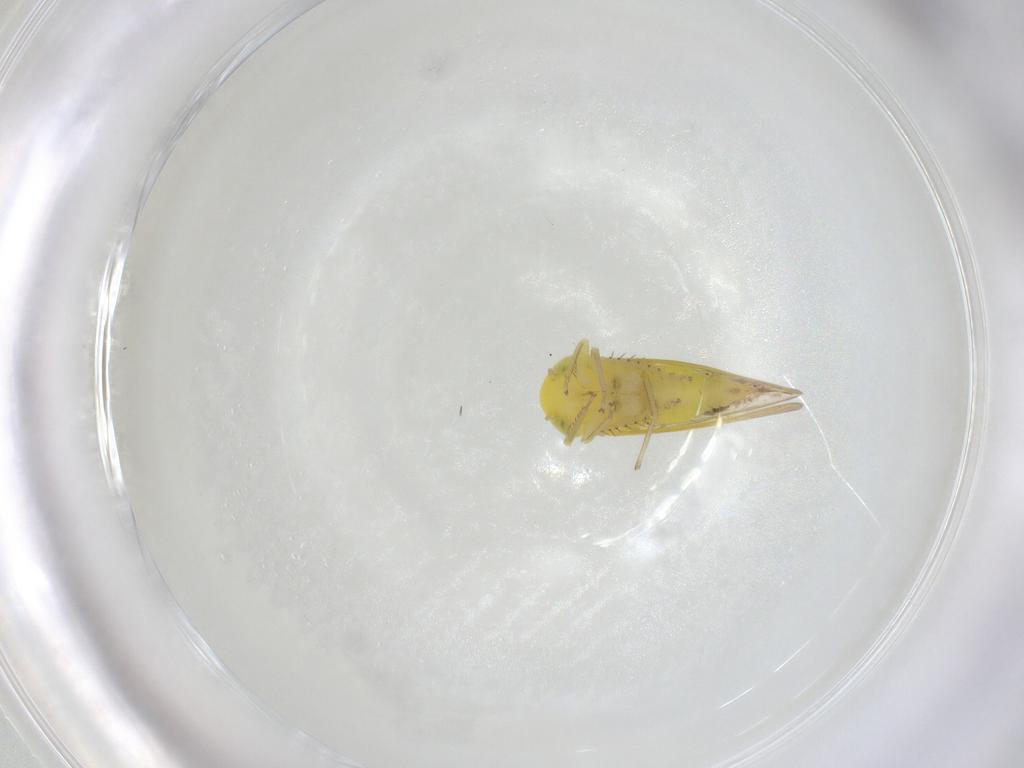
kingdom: Animalia
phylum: Arthropoda
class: Insecta
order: Hemiptera
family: Cicadellidae
